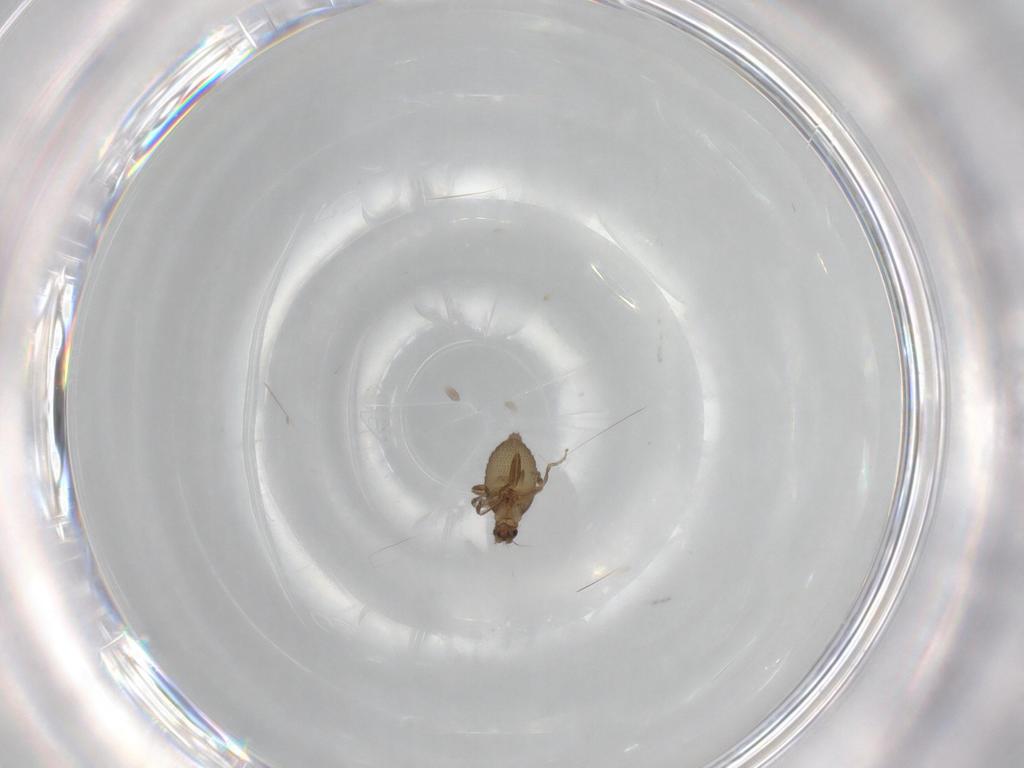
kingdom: Animalia
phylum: Arthropoda
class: Insecta
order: Diptera
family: Phoridae
